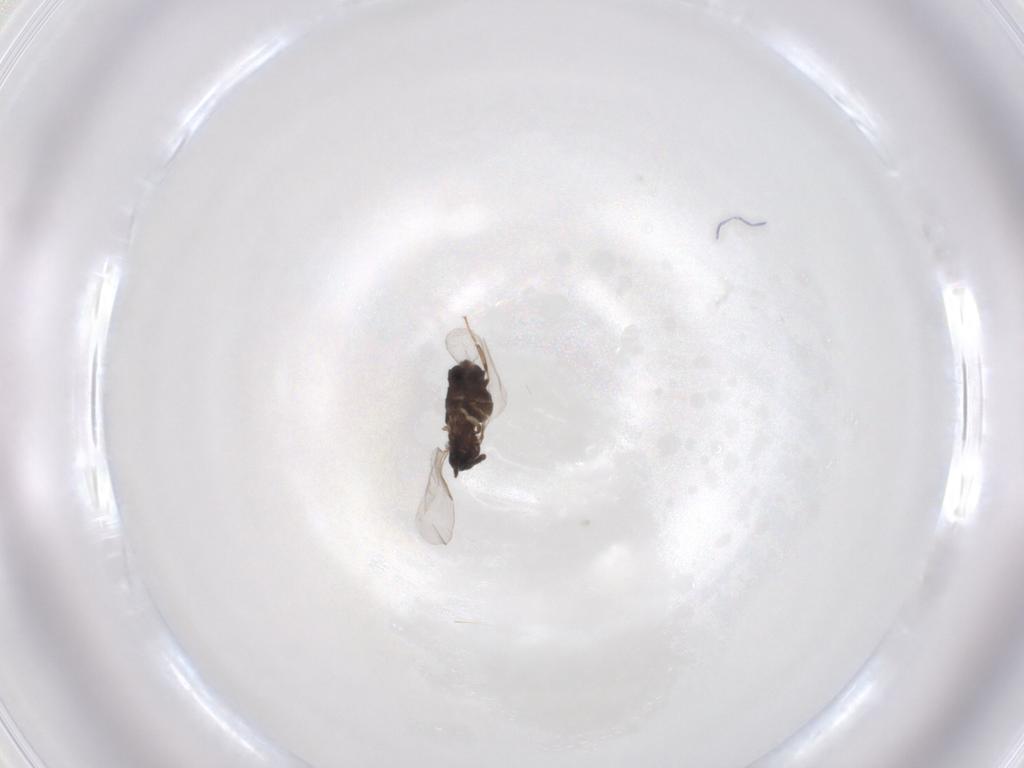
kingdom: Animalia
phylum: Arthropoda
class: Insecta
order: Diptera
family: Scatopsidae
